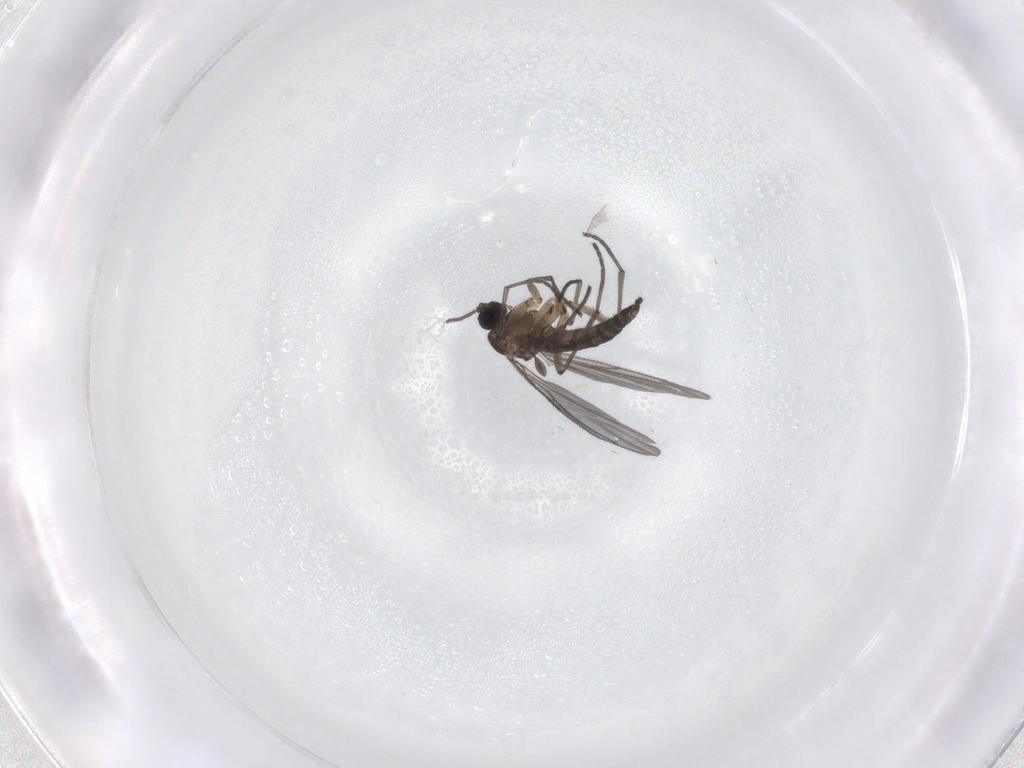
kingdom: Animalia
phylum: Arthropoda
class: Insecta
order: Diptera
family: Sciaridae
